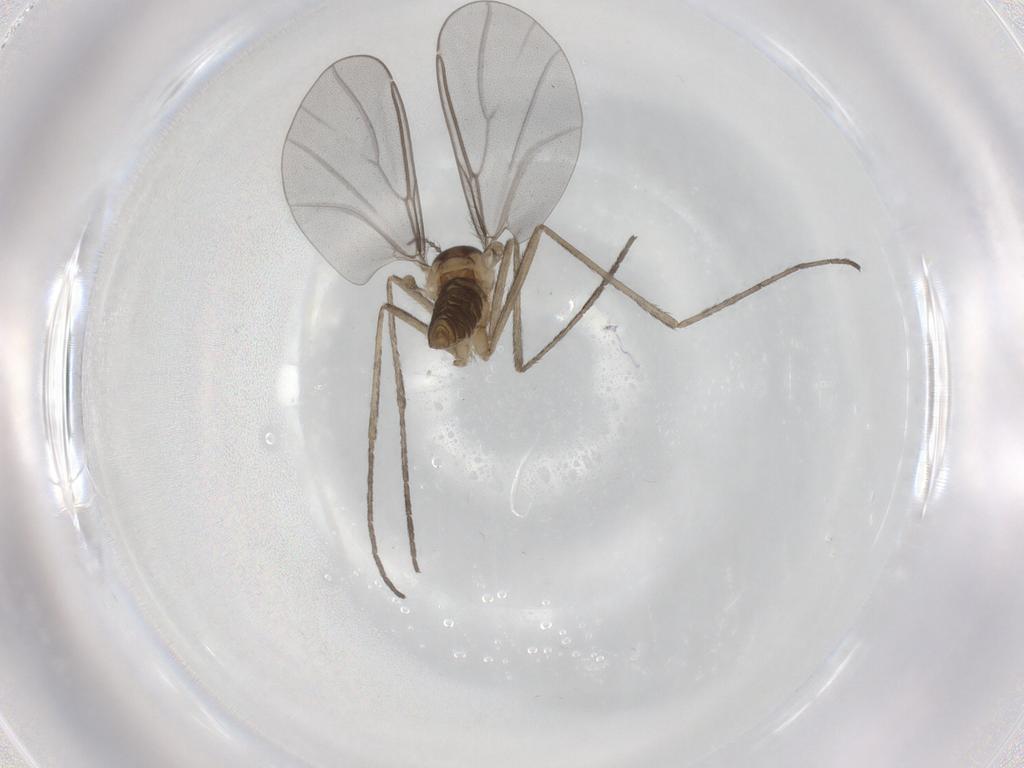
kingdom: Animalia
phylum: Arthropoda
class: Insecta
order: Diptera
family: Cecidomyiidae
